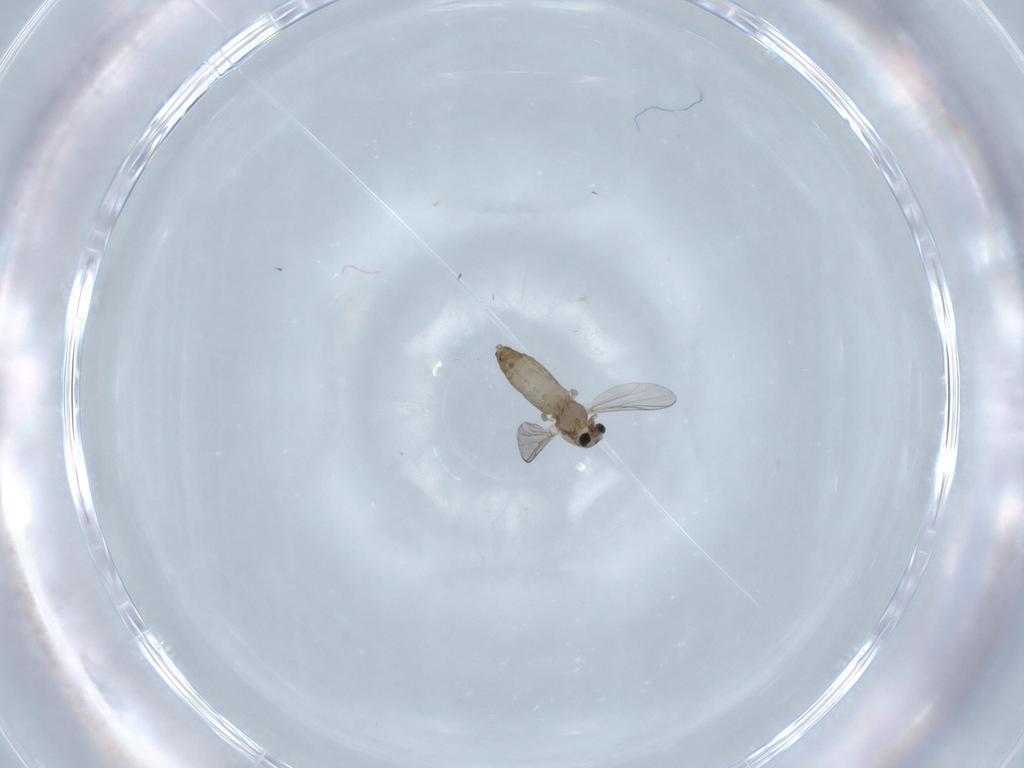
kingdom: Animalia
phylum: Arthropoda
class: Insecta
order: Diptera
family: Chironomidae
